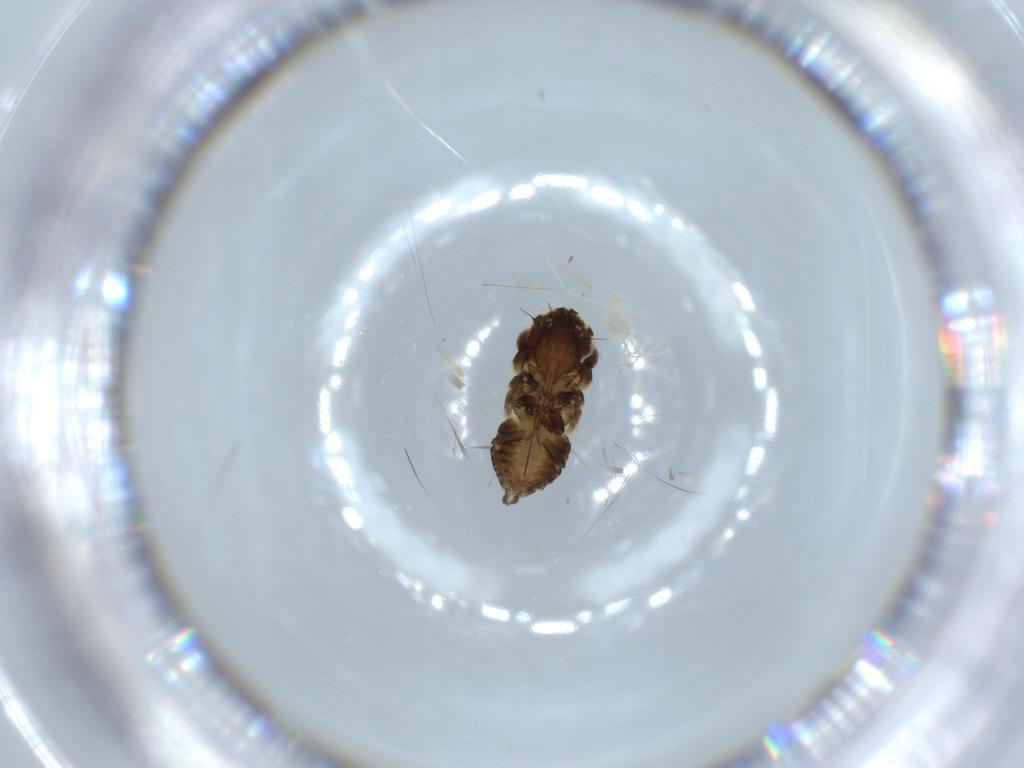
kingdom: Animalia
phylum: Arthropoda
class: Insecta
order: Hemiptera
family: Cicadellidae
